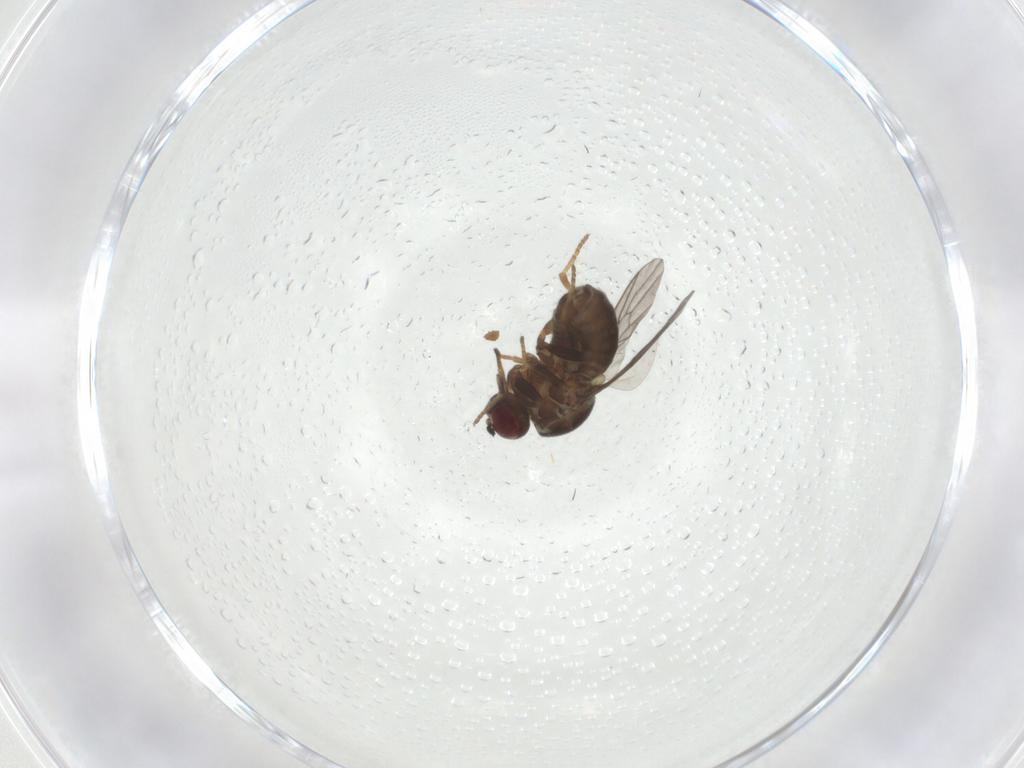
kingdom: Animalia
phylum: Arthropoda
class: Insecta
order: Diptera
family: Bombyliidae
